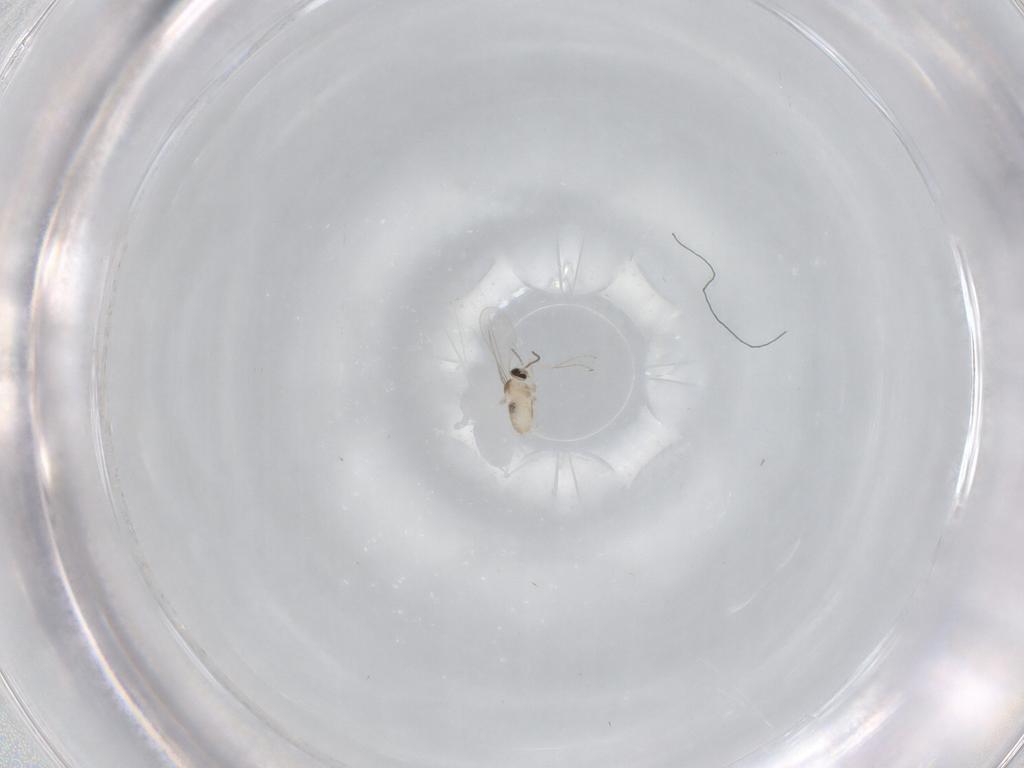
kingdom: Animalia
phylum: Arthropoda
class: Insecta
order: Diptera
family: Cecidomyiidae
